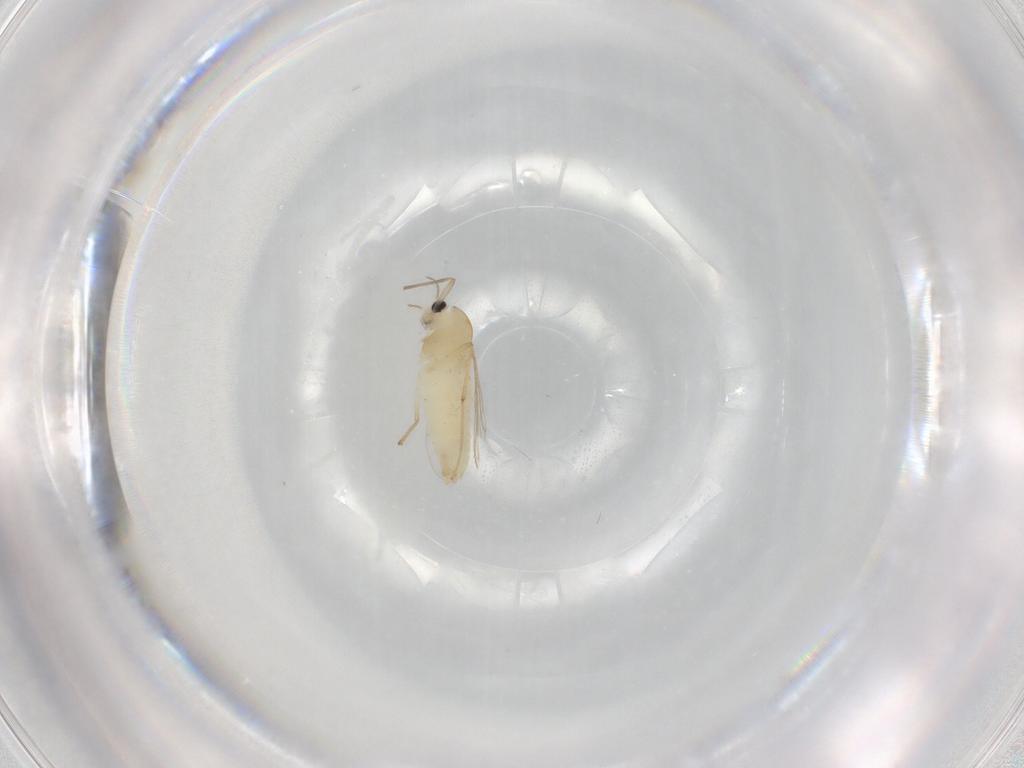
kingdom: Animalia
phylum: Arthropoda
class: Insecta
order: Diptera
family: Chironomidae
